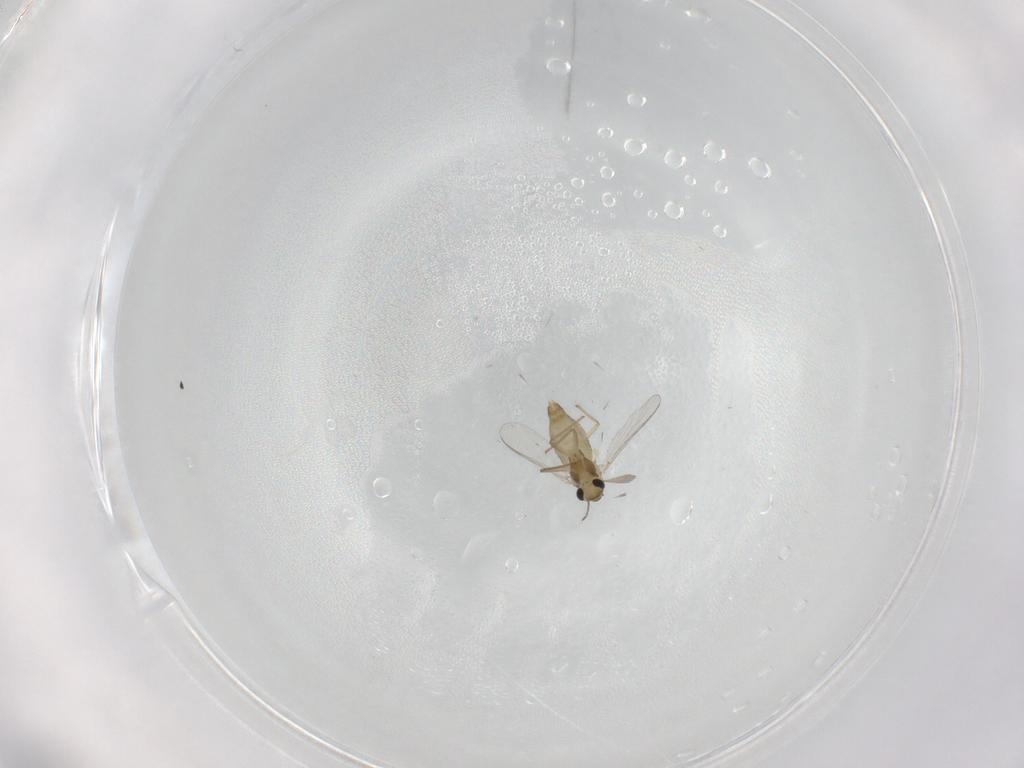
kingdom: Animalia
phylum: Arthropoda
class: Insecta
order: Diptera
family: Chironomidae
